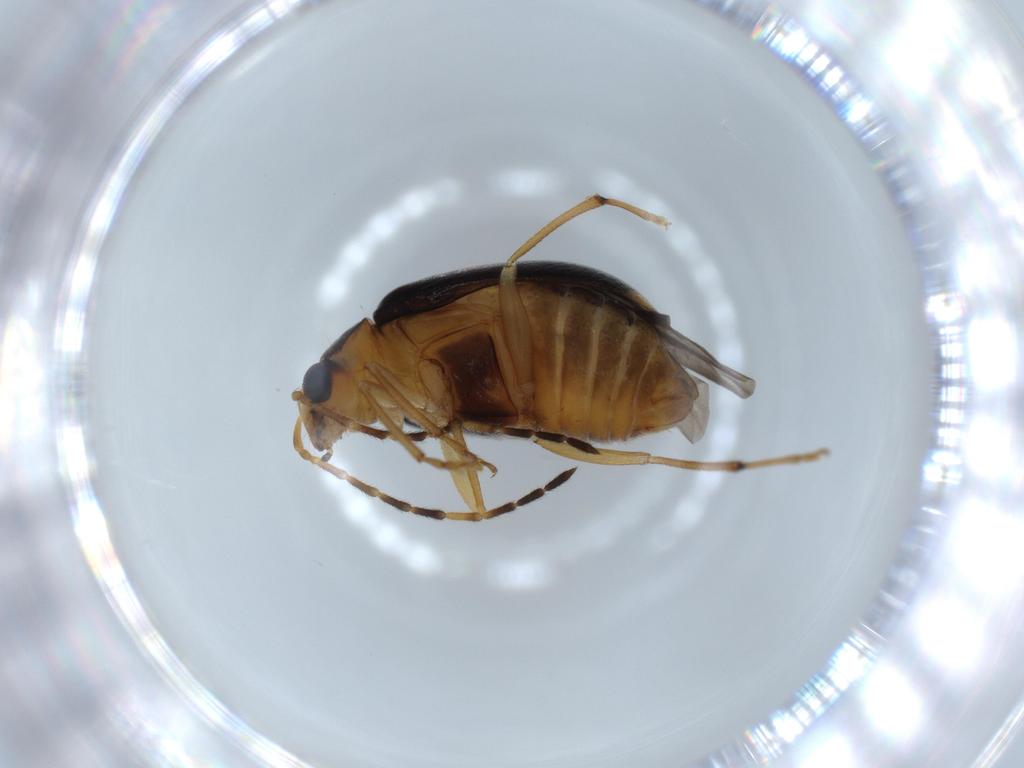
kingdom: Animalia
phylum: Arthropoda
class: Insecta
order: Coleoptera
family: Chrysomelidae
